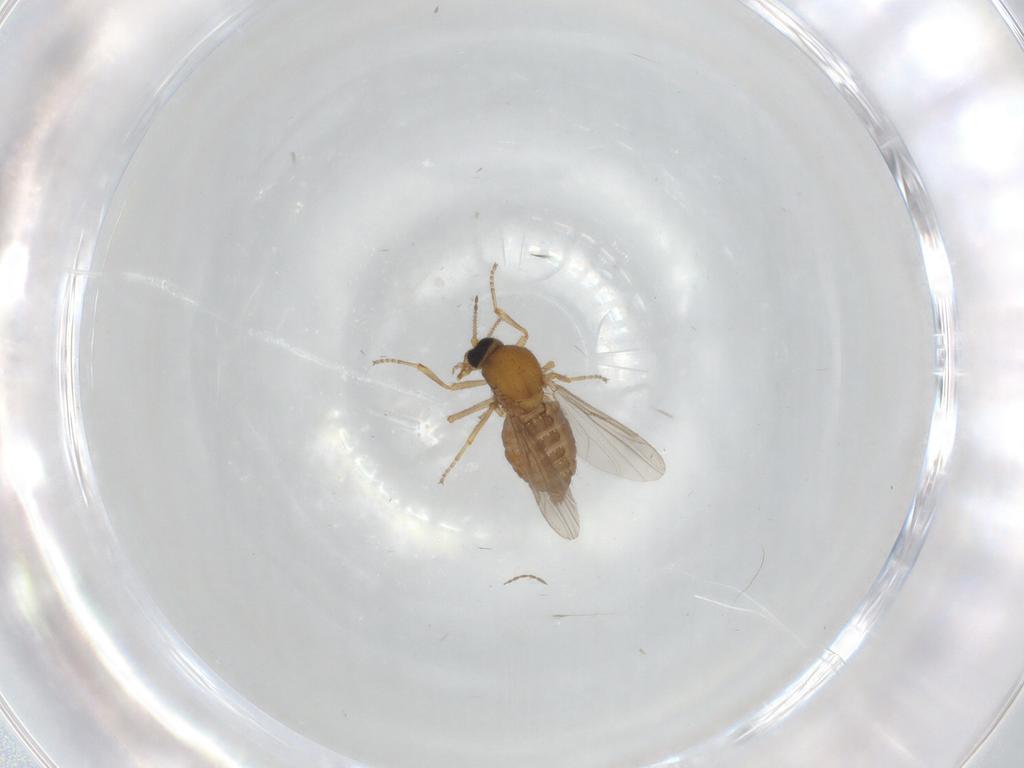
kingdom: Animalia
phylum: Arthropoda
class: Insecta
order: Diptera
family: Ceratopogonidae
